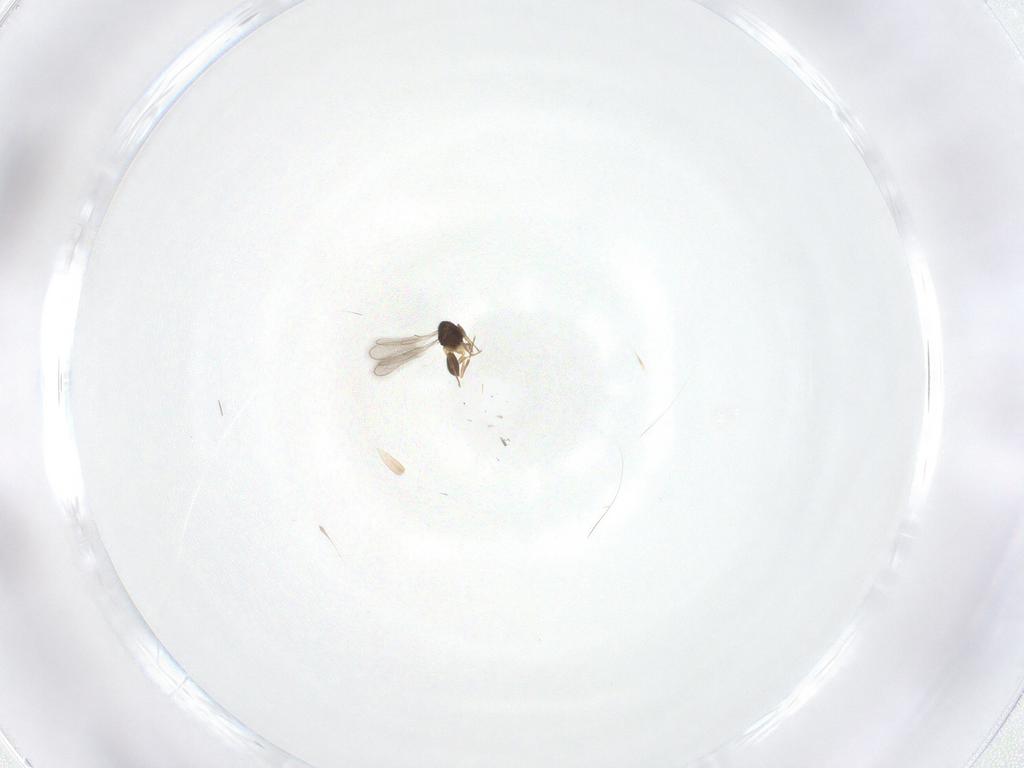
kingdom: Animalia
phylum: Arthropoda
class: Insecta
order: Hymenoptera
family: Scelionidae
